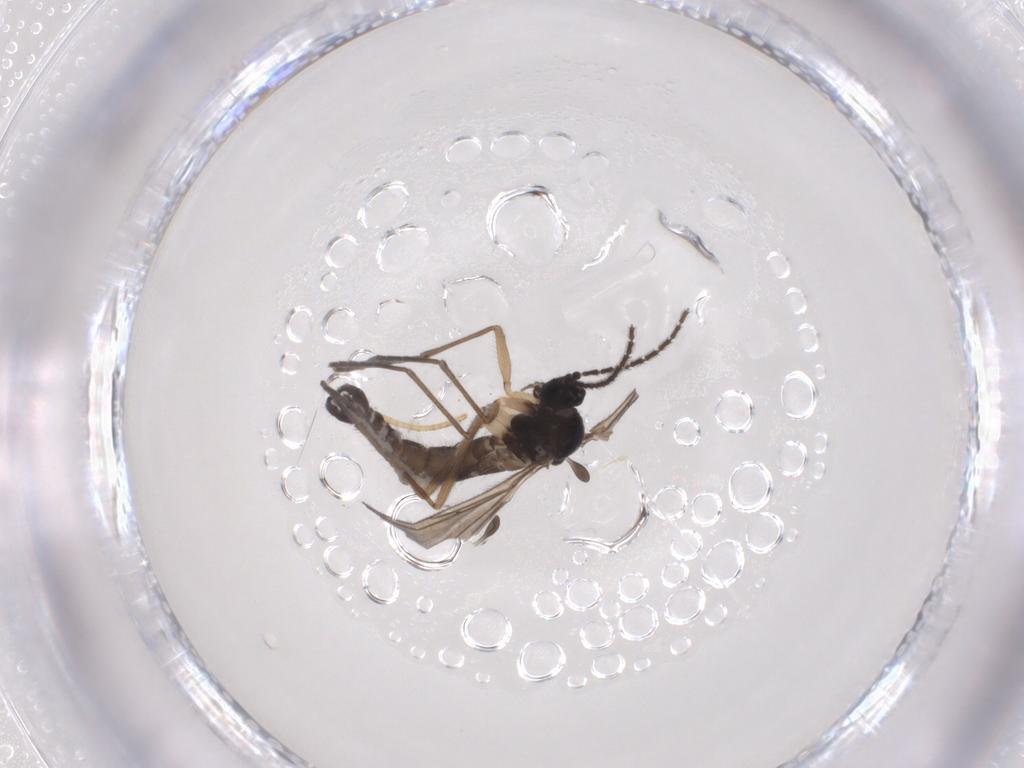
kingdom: Animalia
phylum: Arthropoda
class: Insecta
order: Diptera
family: Sciaridae
